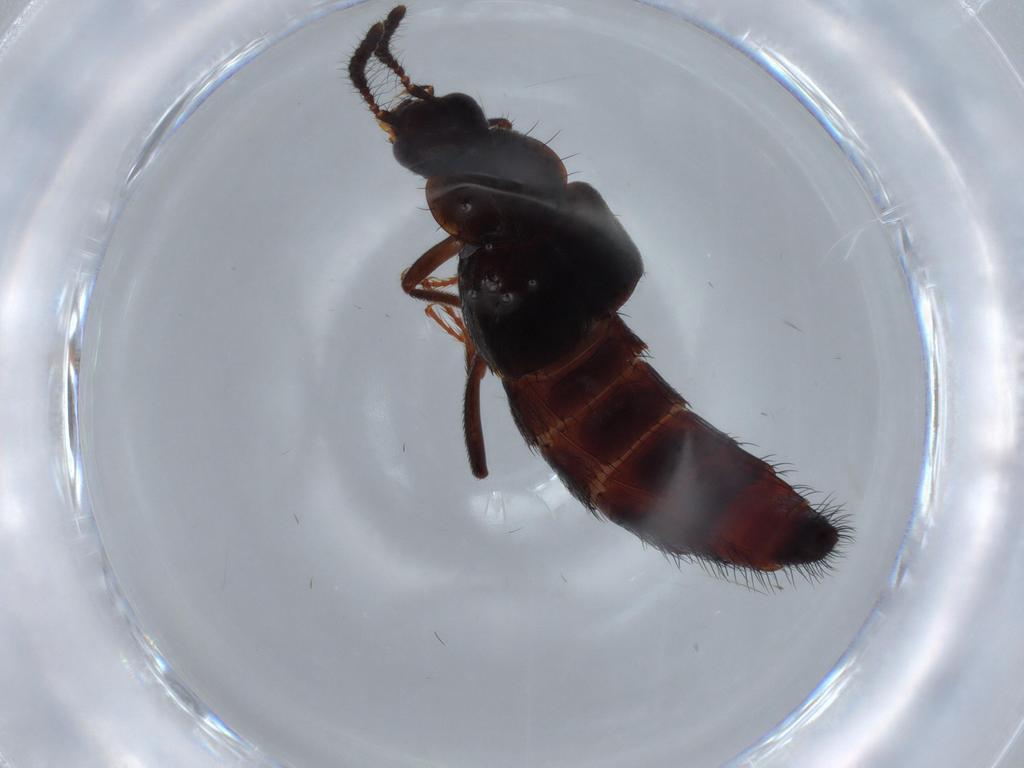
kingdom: Animalia
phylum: Arthropoda
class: Insecta
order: Coleoptera
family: Staphylinidae
